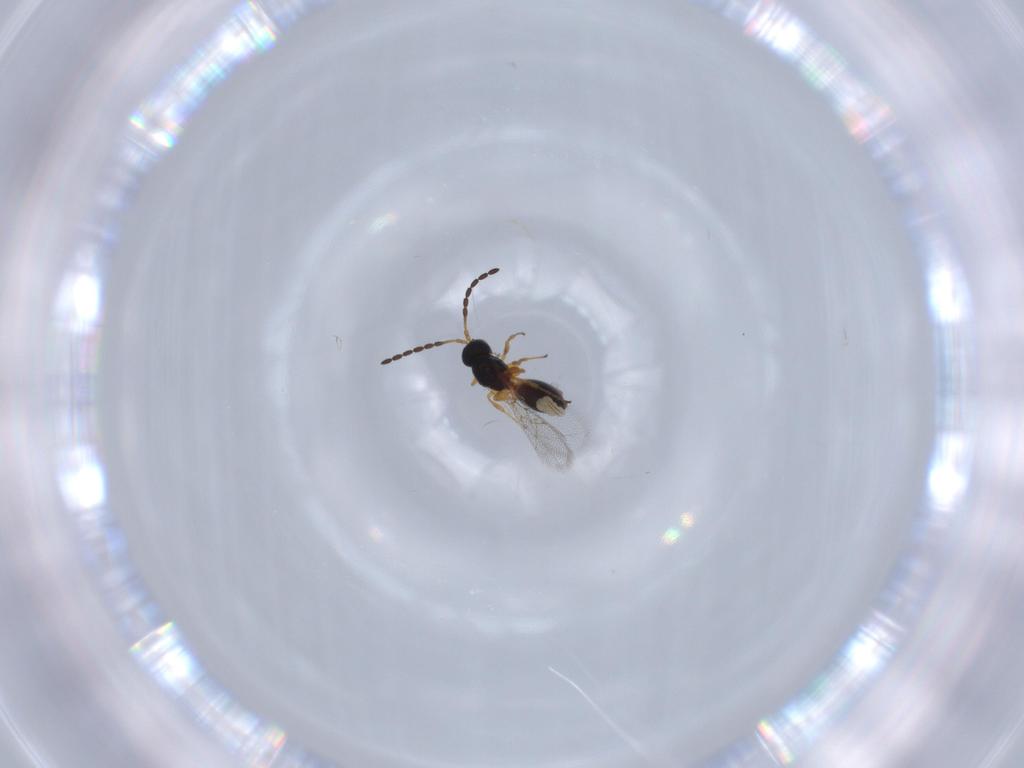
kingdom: Animalia
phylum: Arthropoda
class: Insecta
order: Hymenoptera
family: Figitidae
